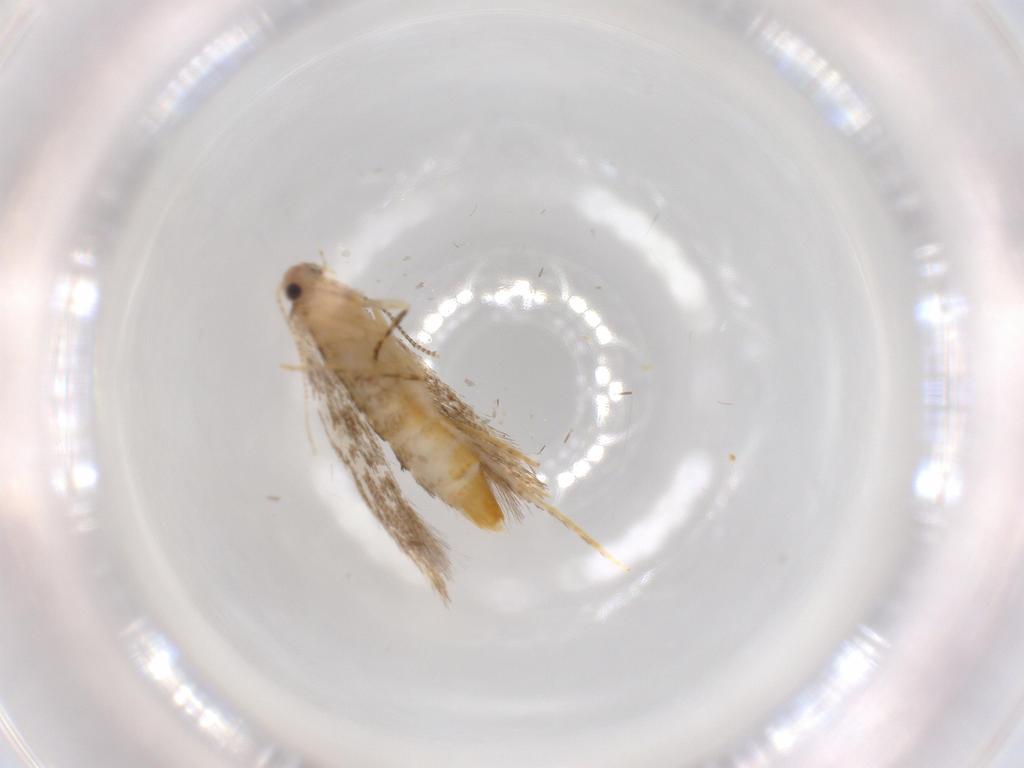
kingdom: Animalia
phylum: Arthropoda
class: Insecta
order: Lepidoptera
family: Tineidae
